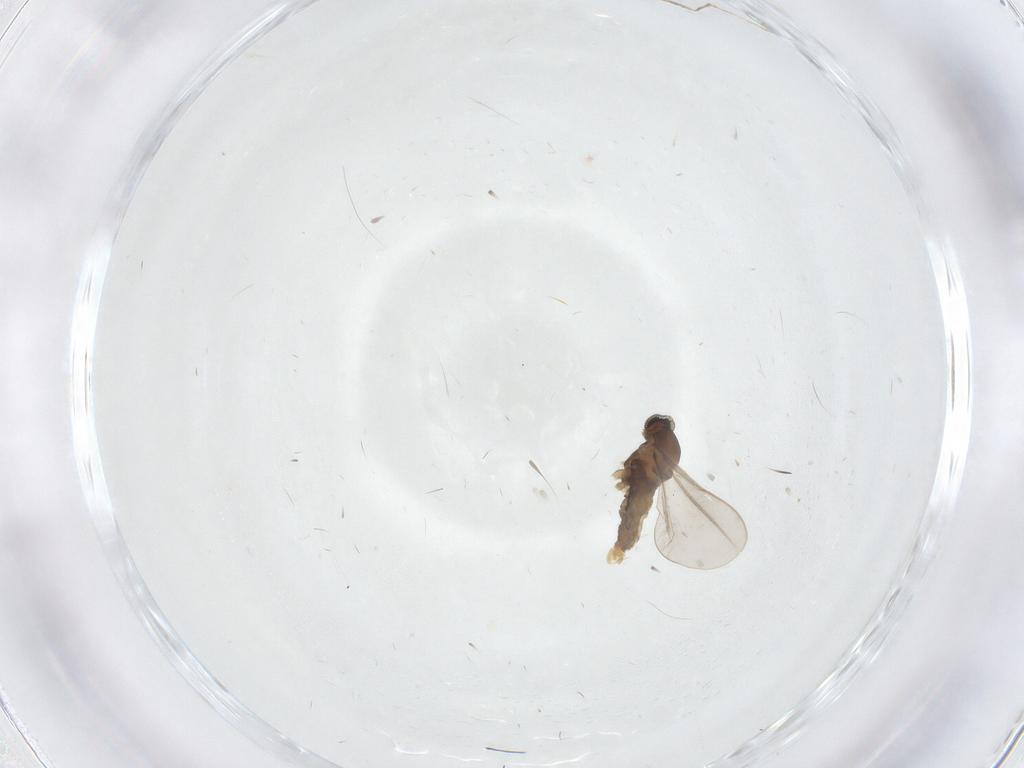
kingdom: Animalia
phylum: Arthropoda
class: Insecta
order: Diptera
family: Cecidomyiidae
